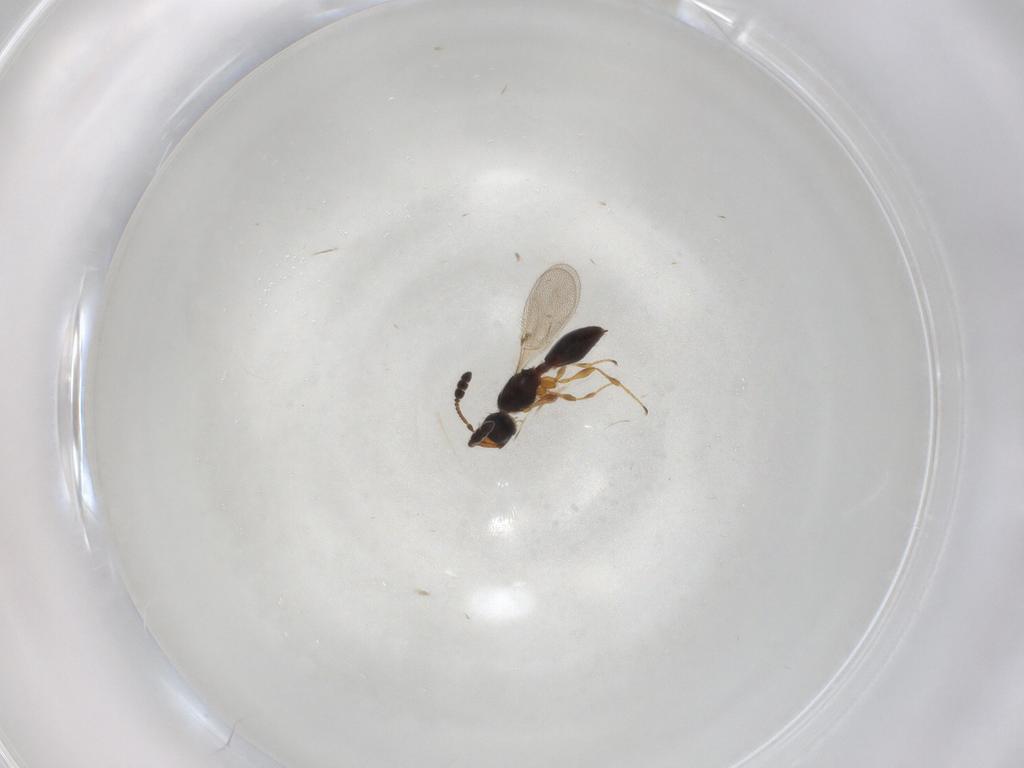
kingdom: Animalia
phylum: Arthropoda
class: Insecta
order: Hymenoptera
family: Diapriidae
